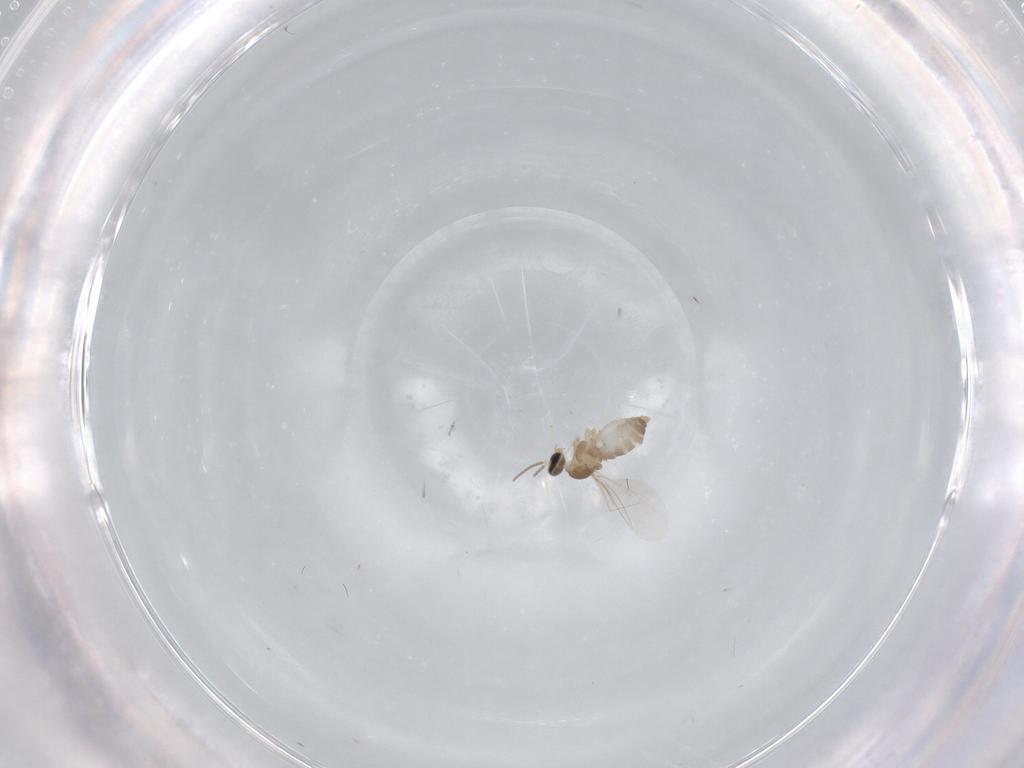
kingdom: Animalia
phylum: Arthropoda
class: Insecta
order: Diptera
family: Cecidomyiidae
